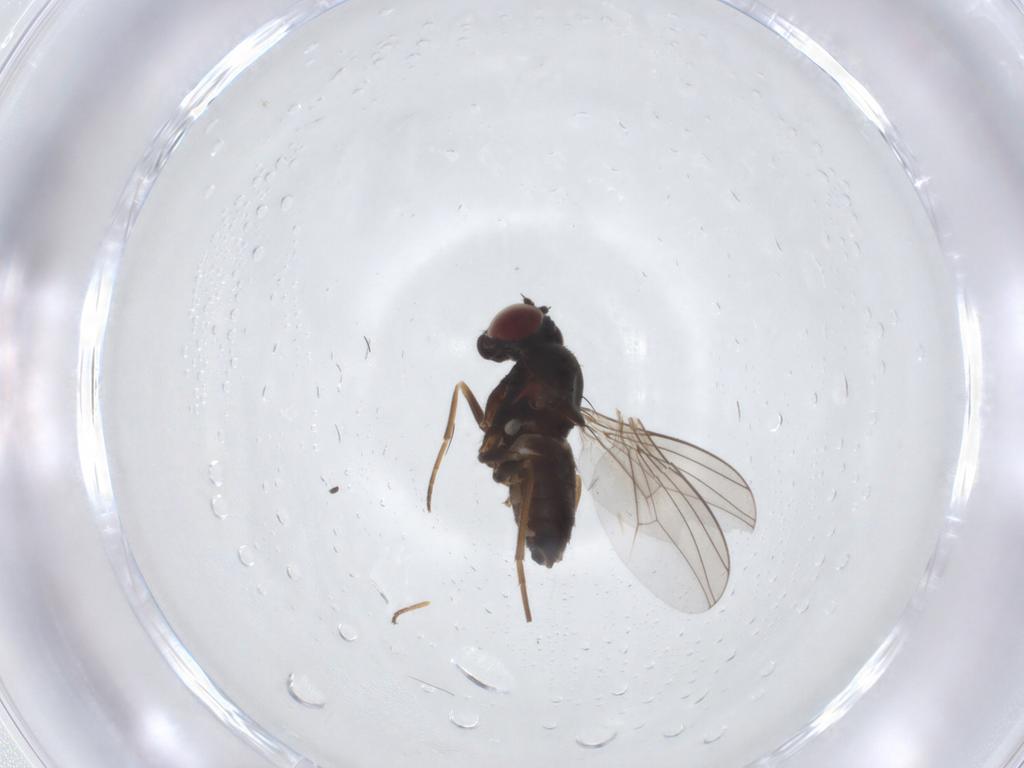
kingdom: Animalia
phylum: Arthropoda
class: Insecta
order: Diptera
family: Dolichopodidae
